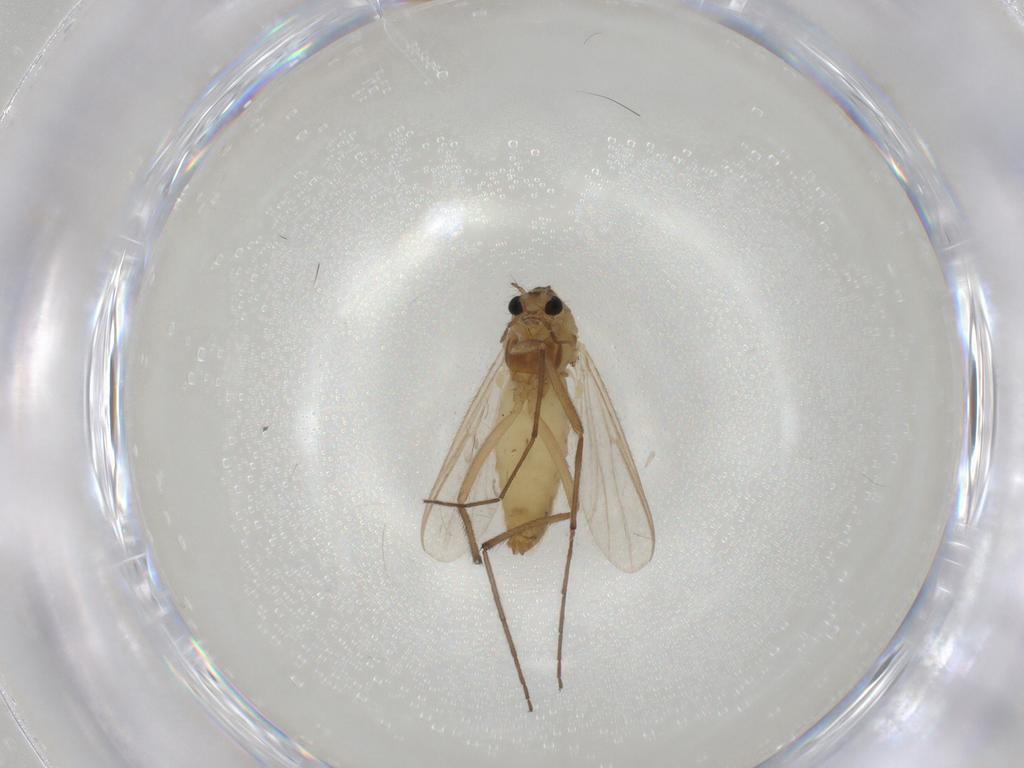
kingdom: Animalia
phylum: Arthropoda
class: Insecta
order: Diptera
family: Chironomidae
